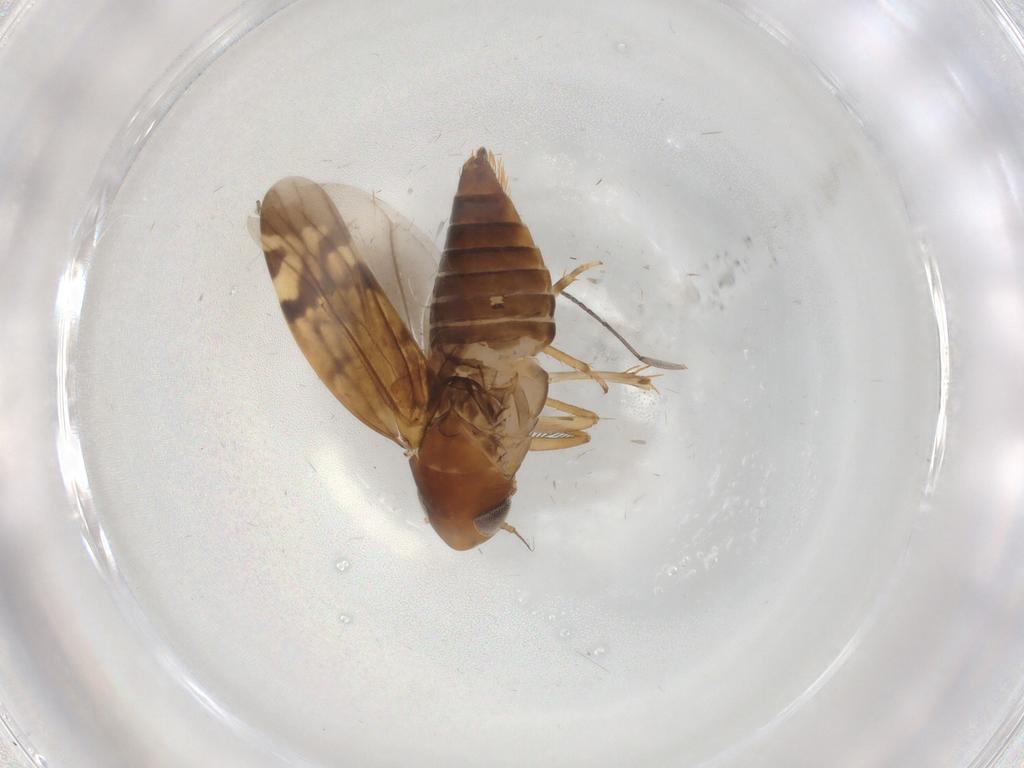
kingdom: Animalia
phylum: Arthropoda
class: Insecta
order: Hemiptera
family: Cicadellidae
